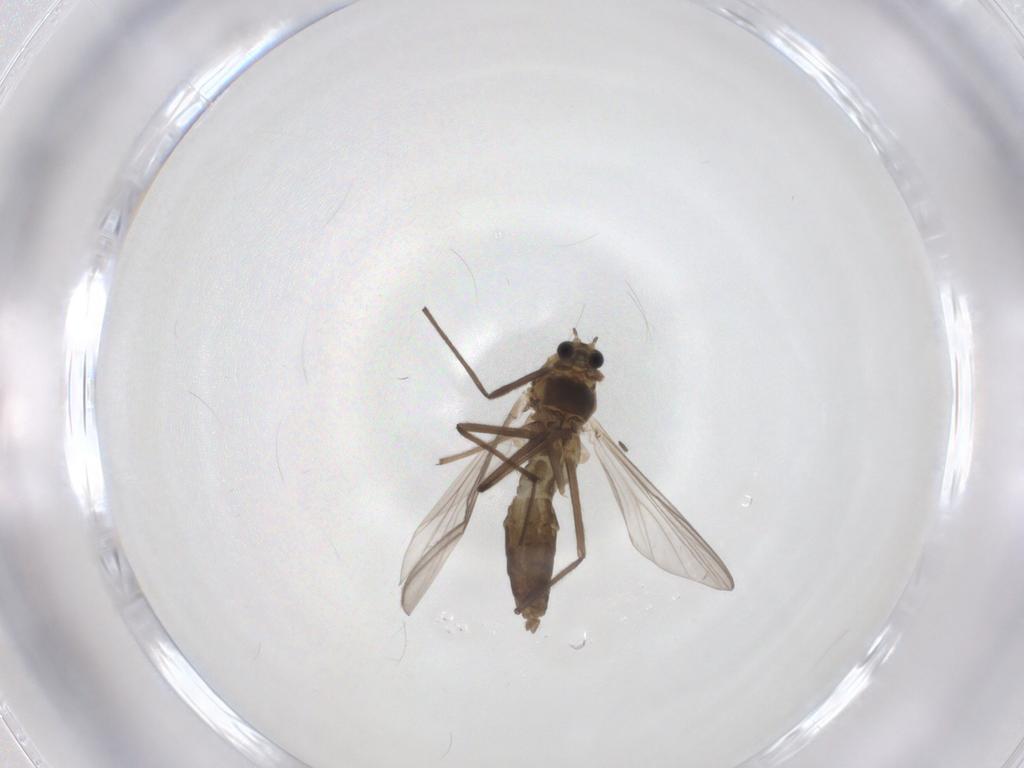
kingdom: Animalia
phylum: Arthropoda
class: Insecta
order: Diptera
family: Chironomidae
